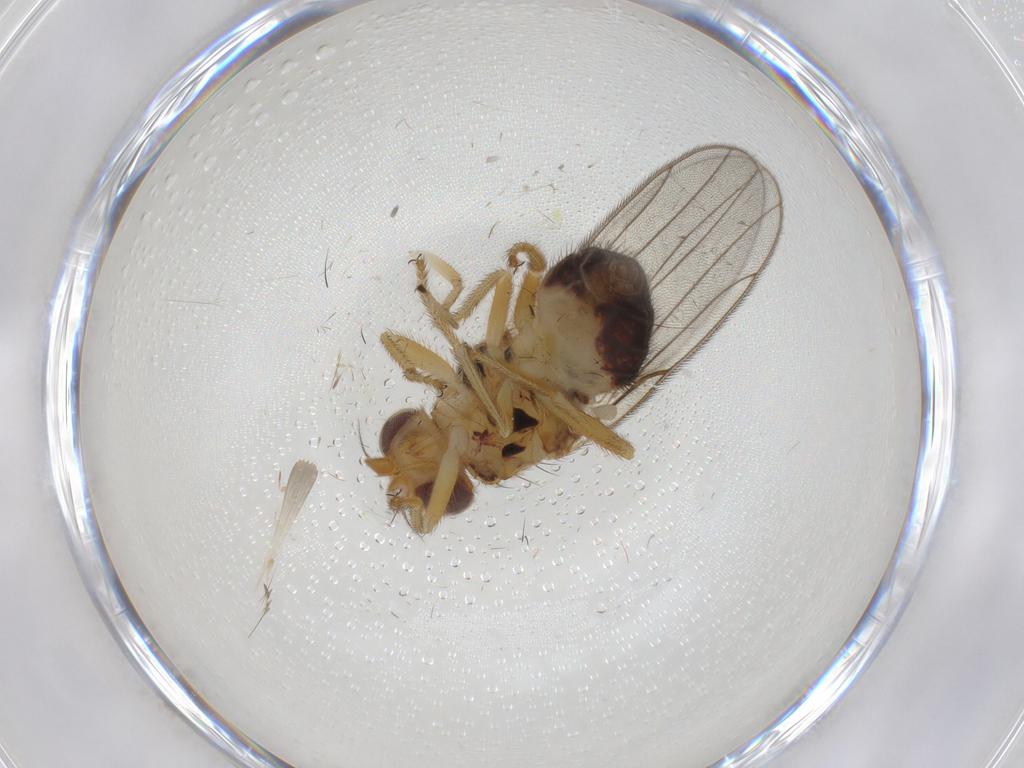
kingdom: Animalia
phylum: Arthropoda
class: Insecta
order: Diptera
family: Chloropidae
